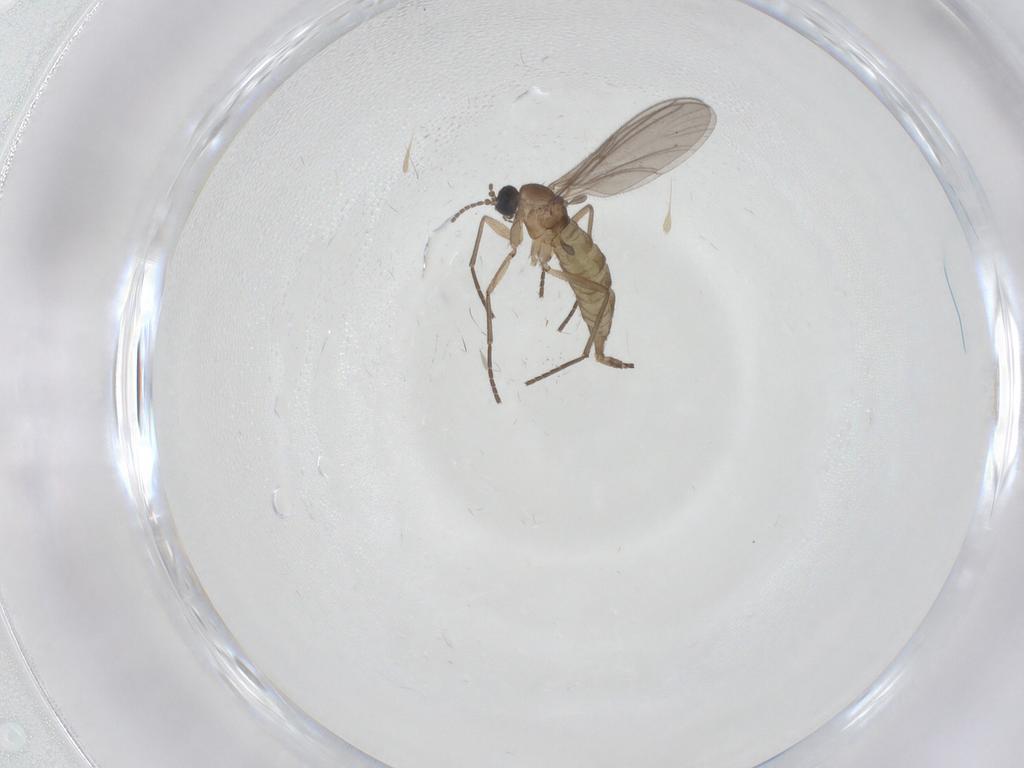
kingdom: Animalia
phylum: Arthropoda
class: Insecta
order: Diptera
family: Sciaridae
